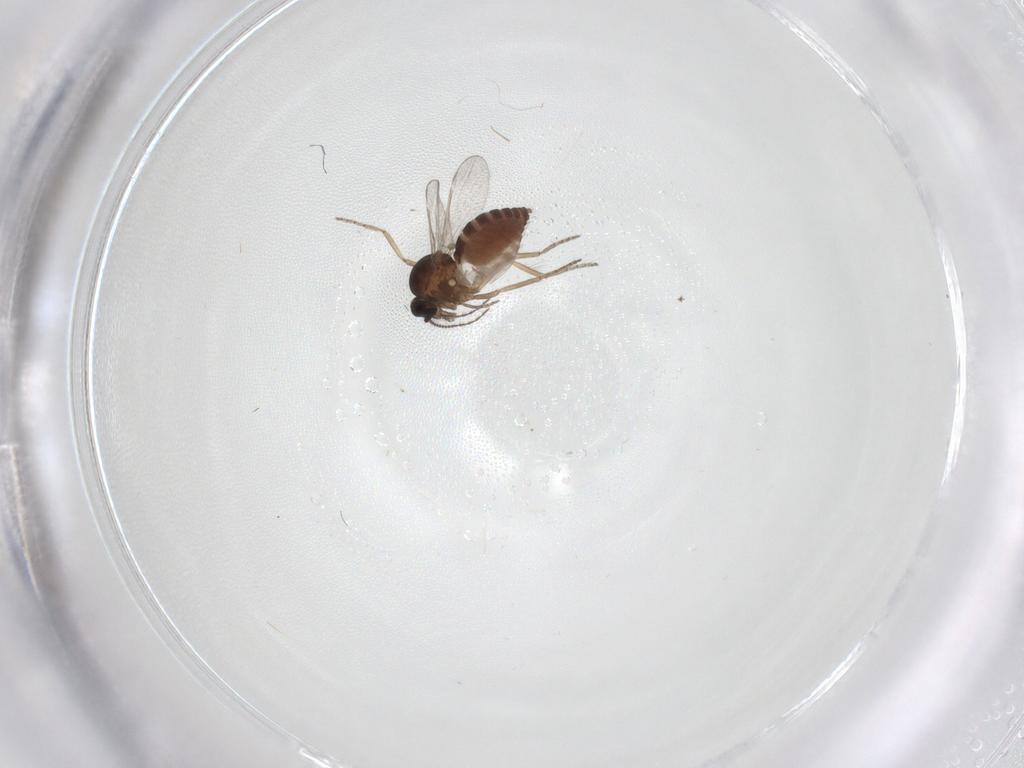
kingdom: Animalia
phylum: Arthropoda
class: Insecta
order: Diptera
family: Ceratopogonidae
